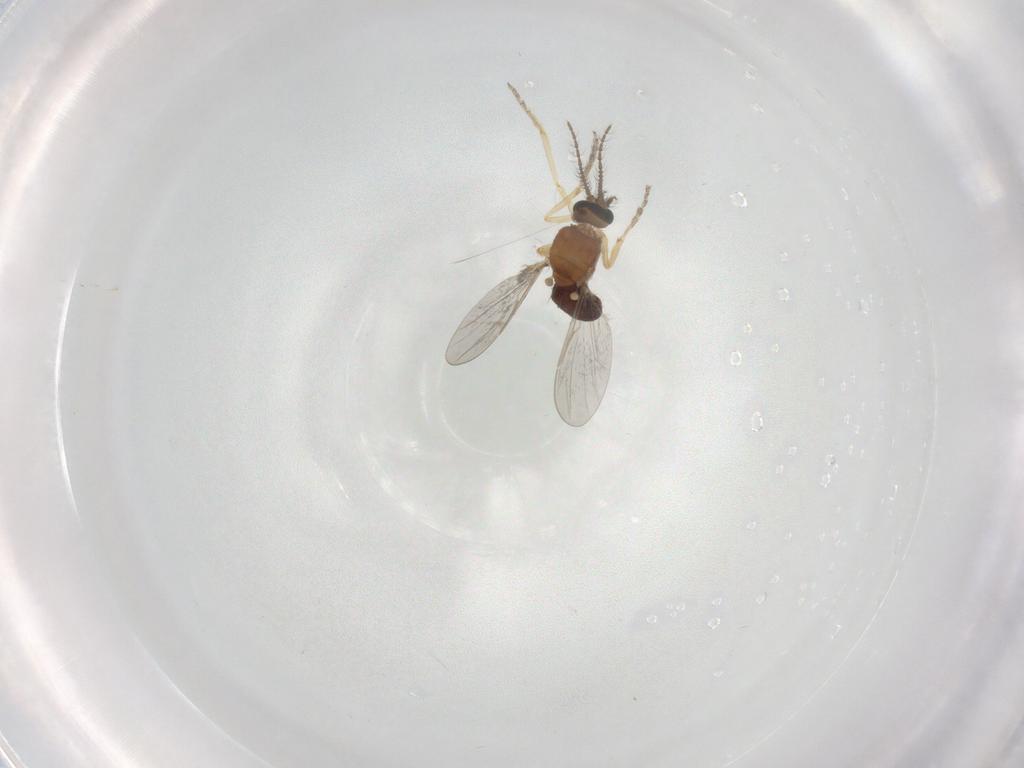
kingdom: Animalia
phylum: Arthropoda
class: Insecta
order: Diptera
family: Ceratopogonidae
